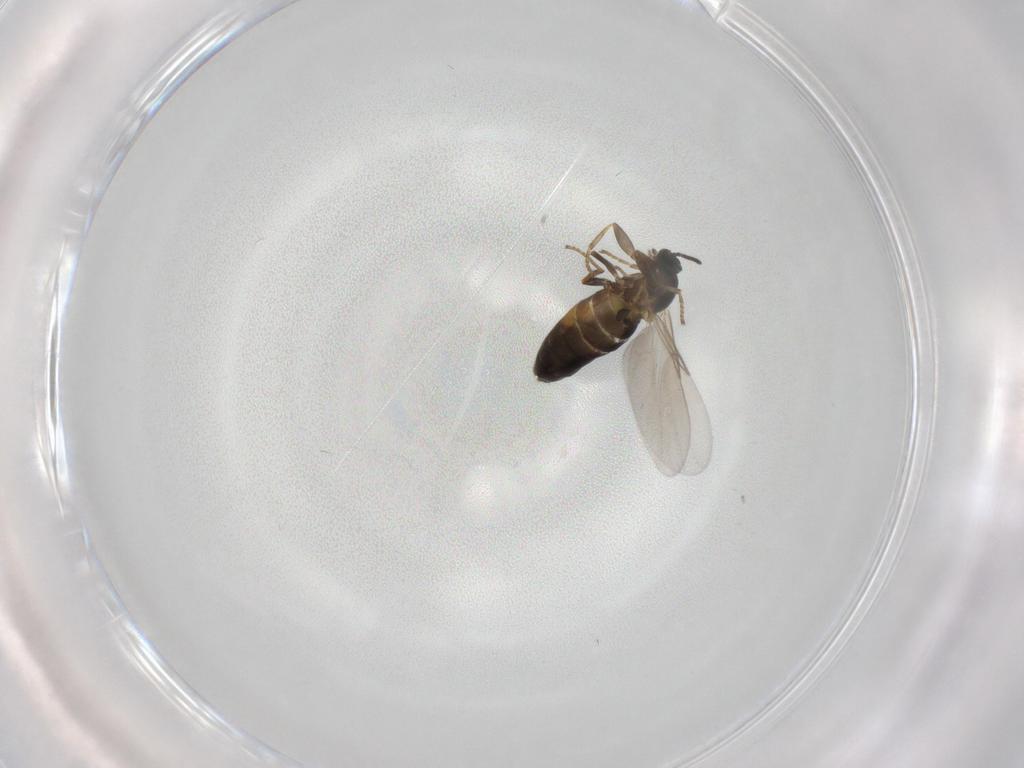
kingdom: Animalia
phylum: Arthropoda
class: Insecta
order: Diptera
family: Scatopsidae
